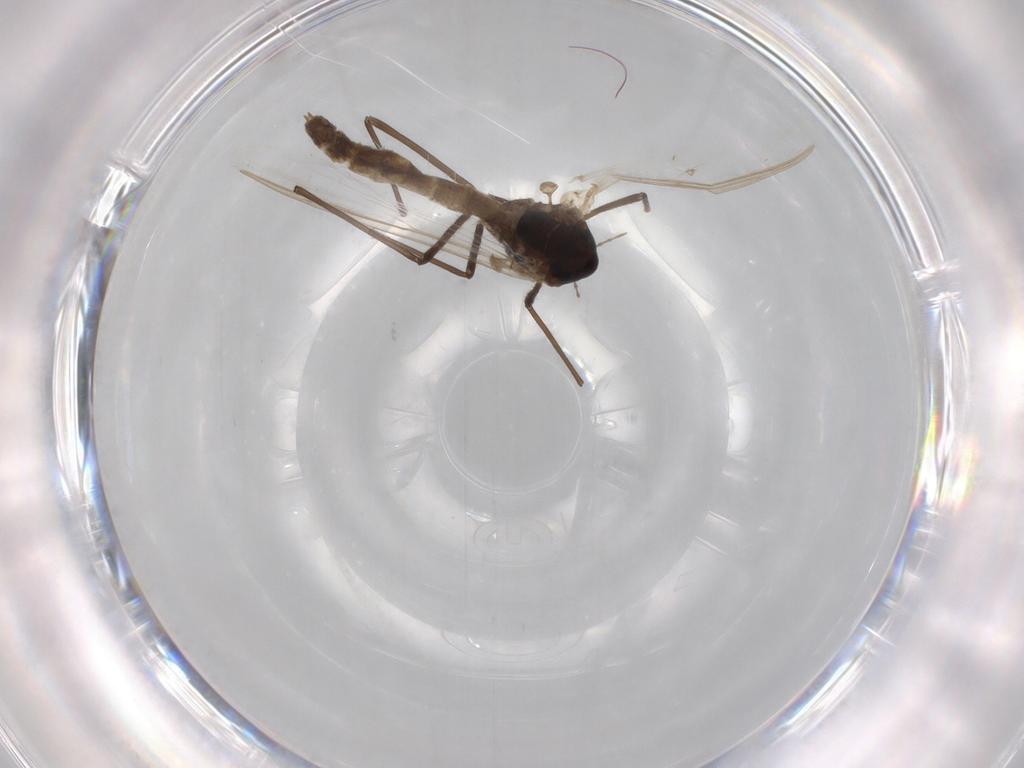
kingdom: Animalia
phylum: Arthropoda
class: Insecta
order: Diptera
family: Chironomidae
